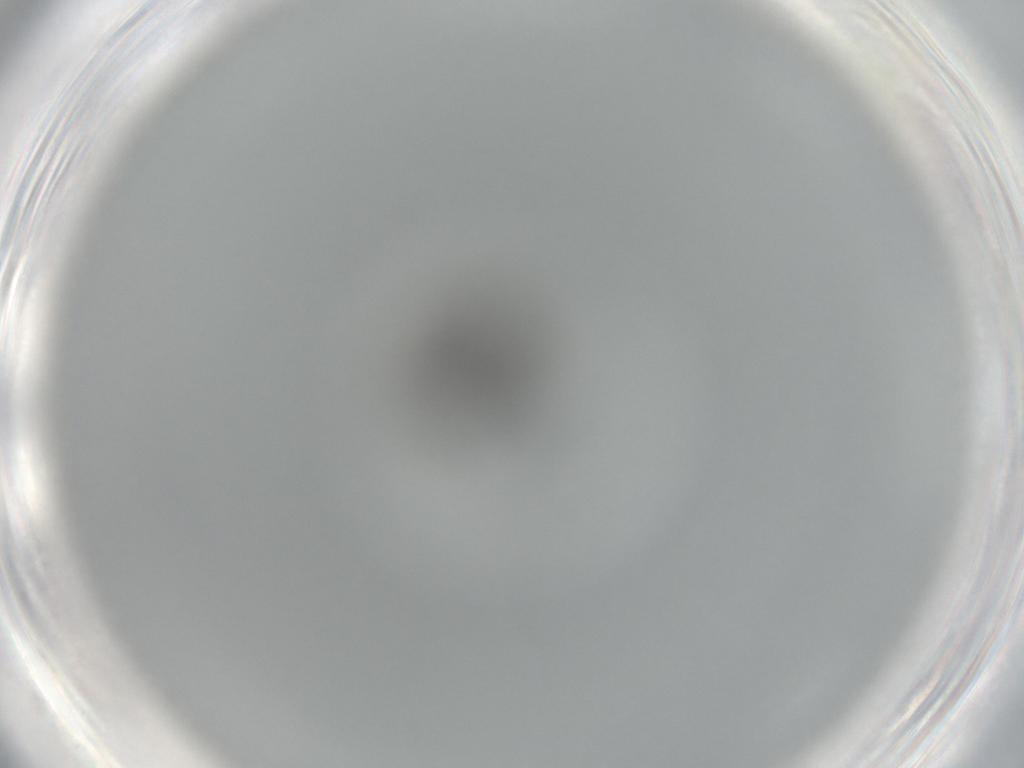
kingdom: Animalia
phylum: Arthropoda
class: Insecta
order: Diptera
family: Phoridae
